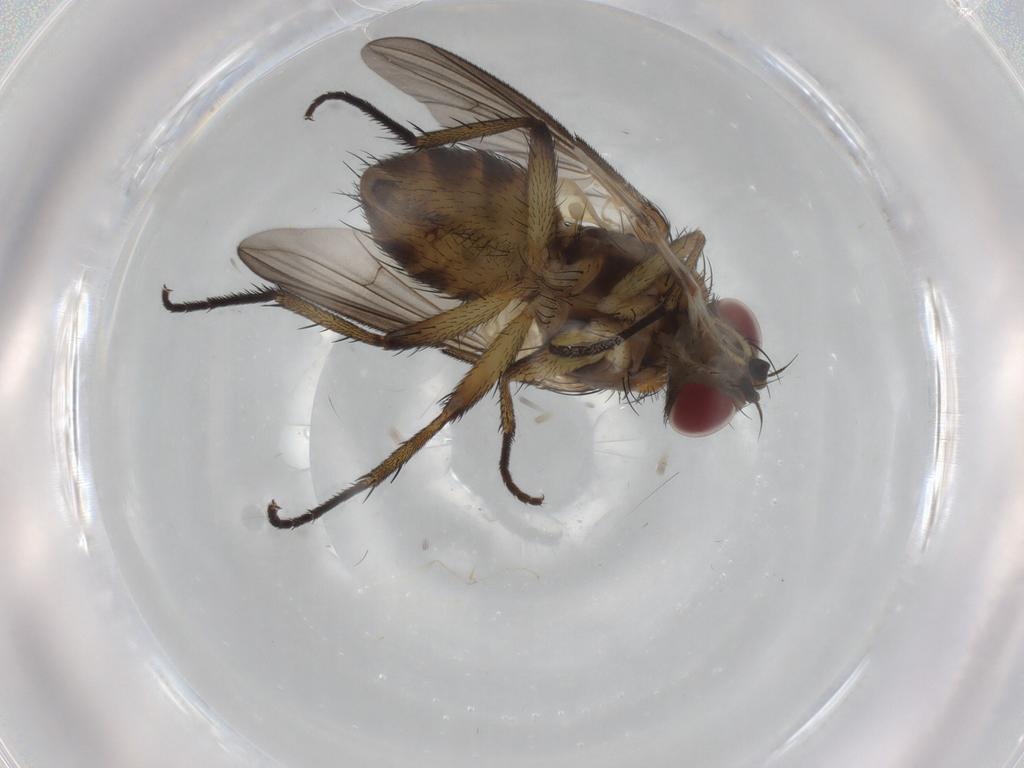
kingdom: Animalia
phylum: Arthropoda
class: Insecta
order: Diptera
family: Tachinidae
